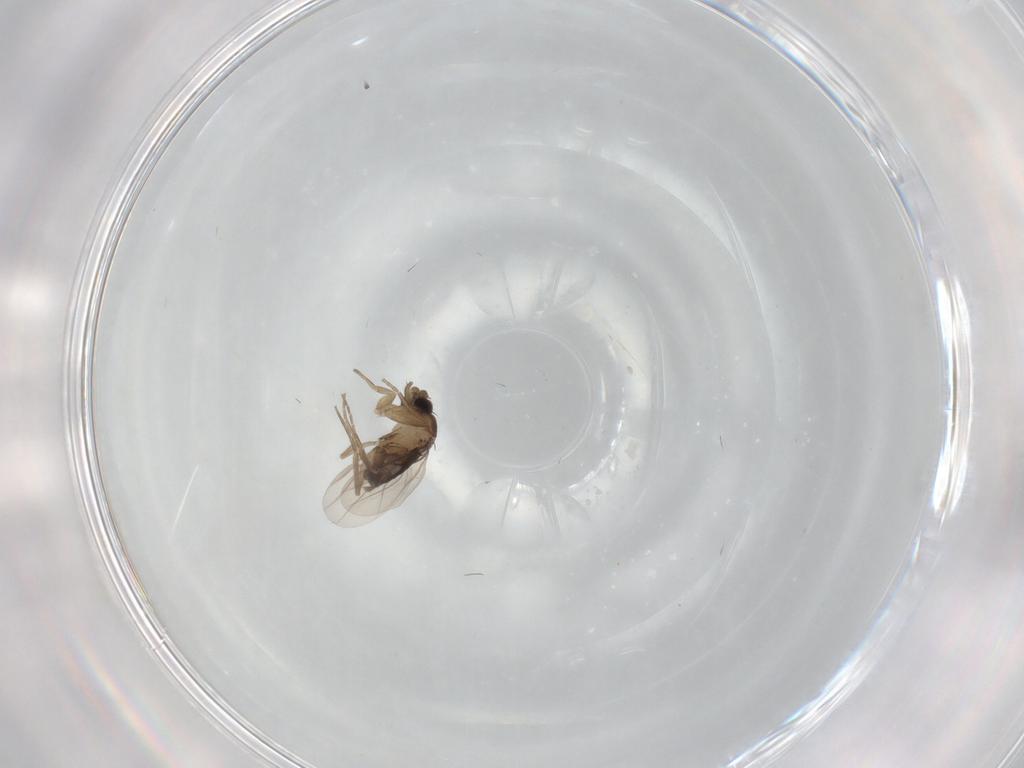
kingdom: Animalia
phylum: Arthropoda
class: Insecta
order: Diptera
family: Phoridae
